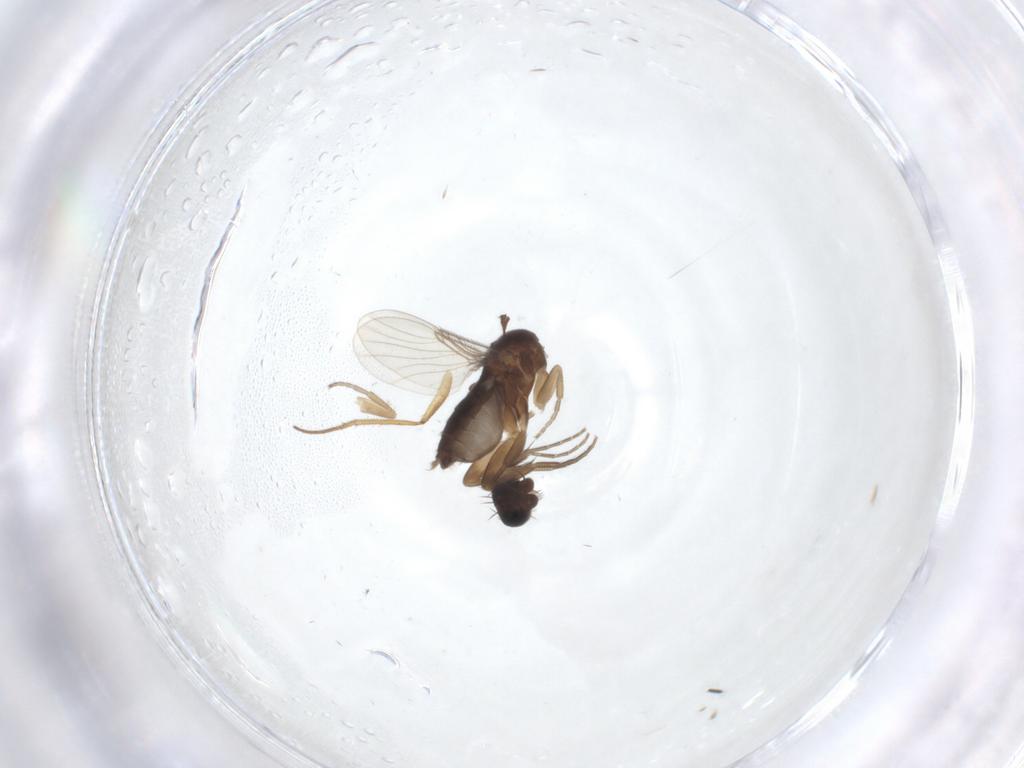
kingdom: Animalia
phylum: Arthropoda
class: Insecta
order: Diptera
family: Phoridae
